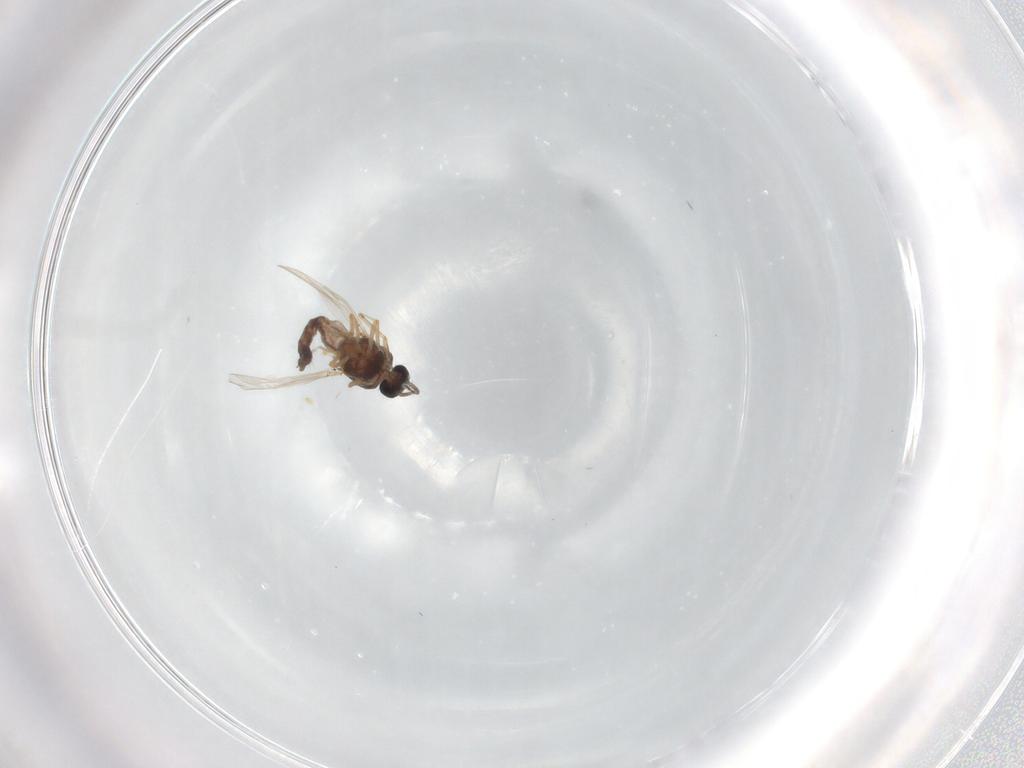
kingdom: Animalia
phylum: Arthropoda
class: Insecta
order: Diptera
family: Ceratopogonidae
